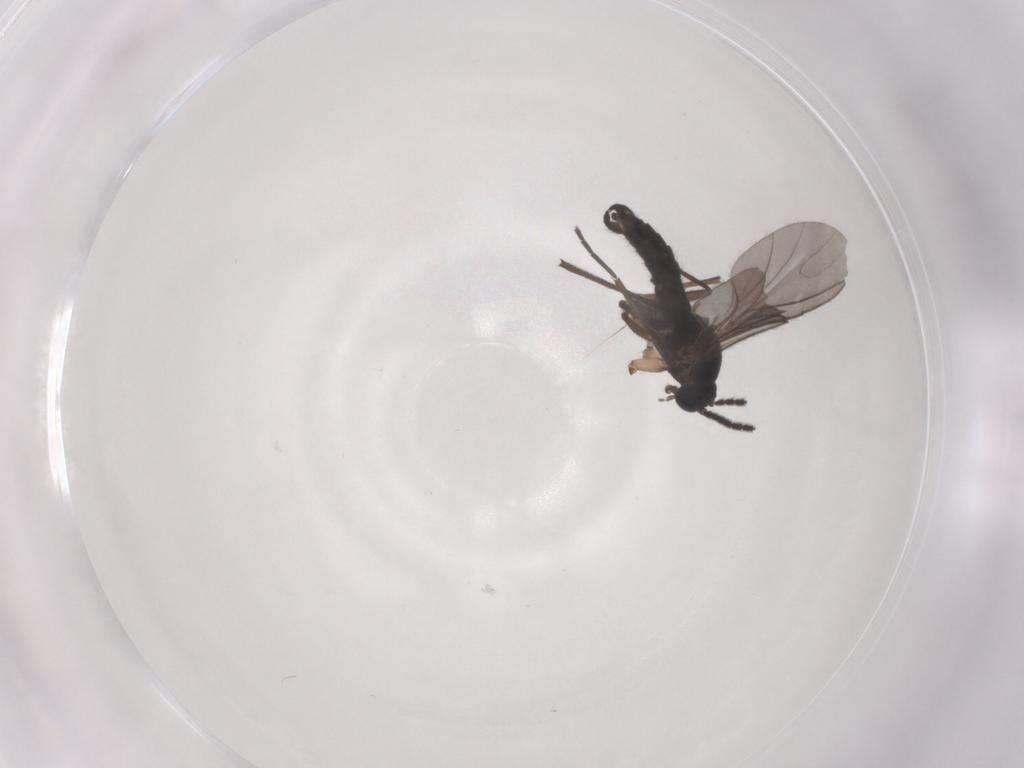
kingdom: Animalia
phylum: Arthropoda
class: Insecta
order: Diptera
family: Sciaridae
